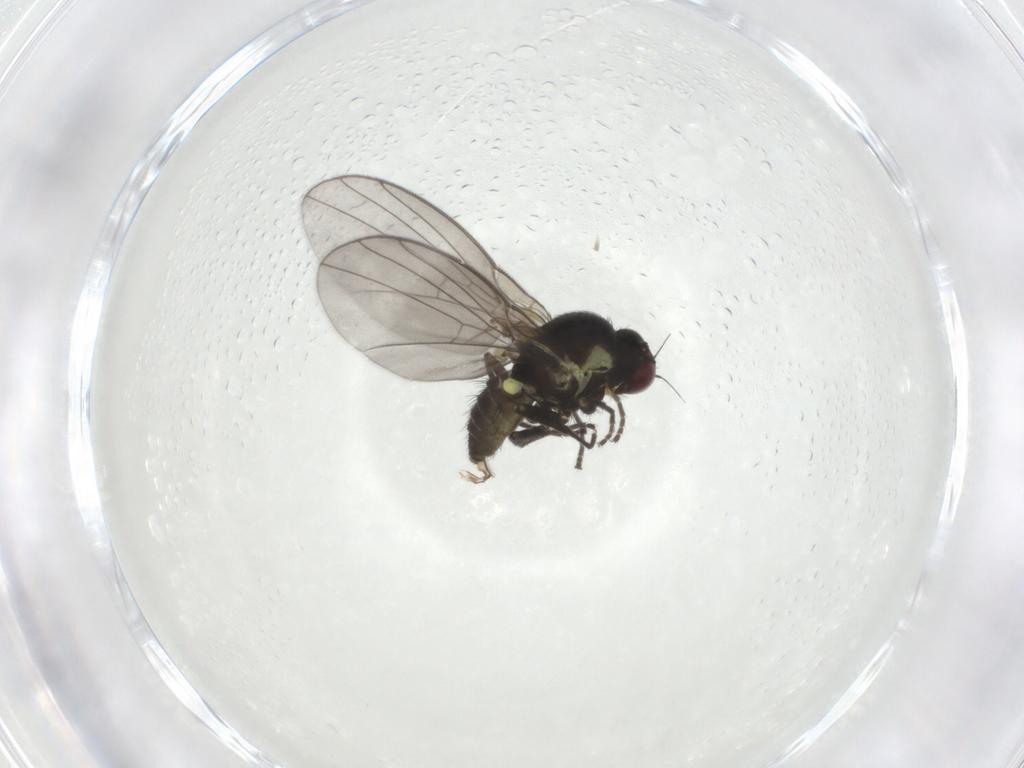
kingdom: Animalia
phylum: Arthropoda
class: Insecta
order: Diptera
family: Agromyzidae
